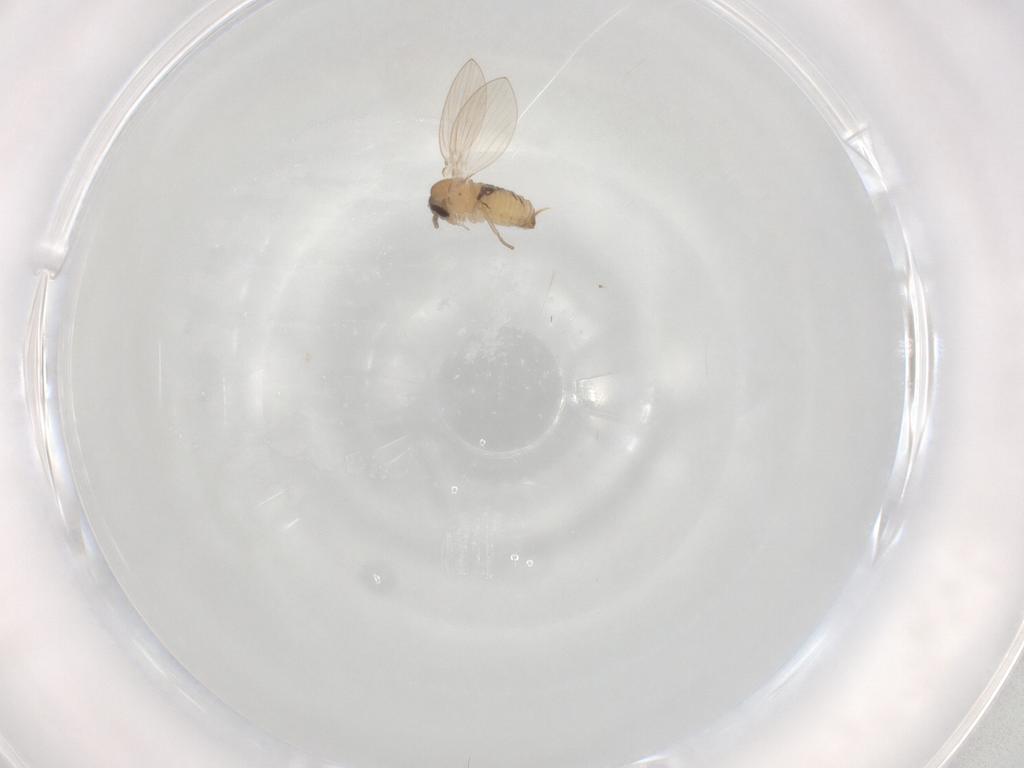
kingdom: Animalia
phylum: Arthropoda
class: Insecta
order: Diptera
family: Psychodidae
